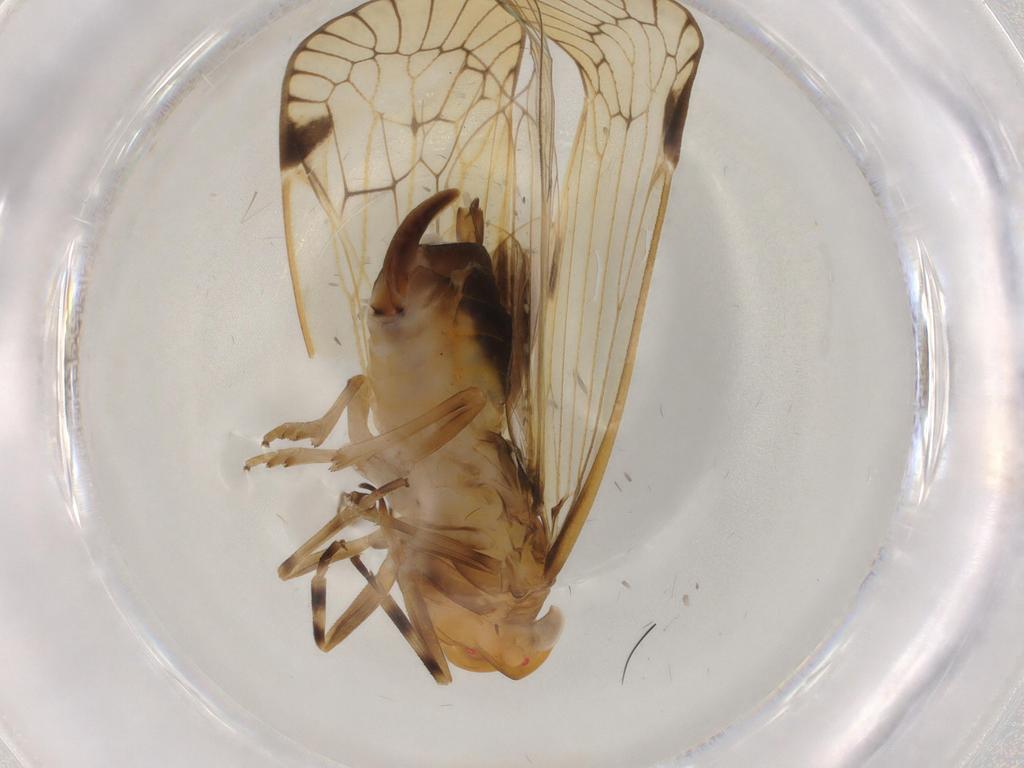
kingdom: Animalia
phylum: Arthropoda
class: Insecta
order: Hemiptera
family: Cixiidae
